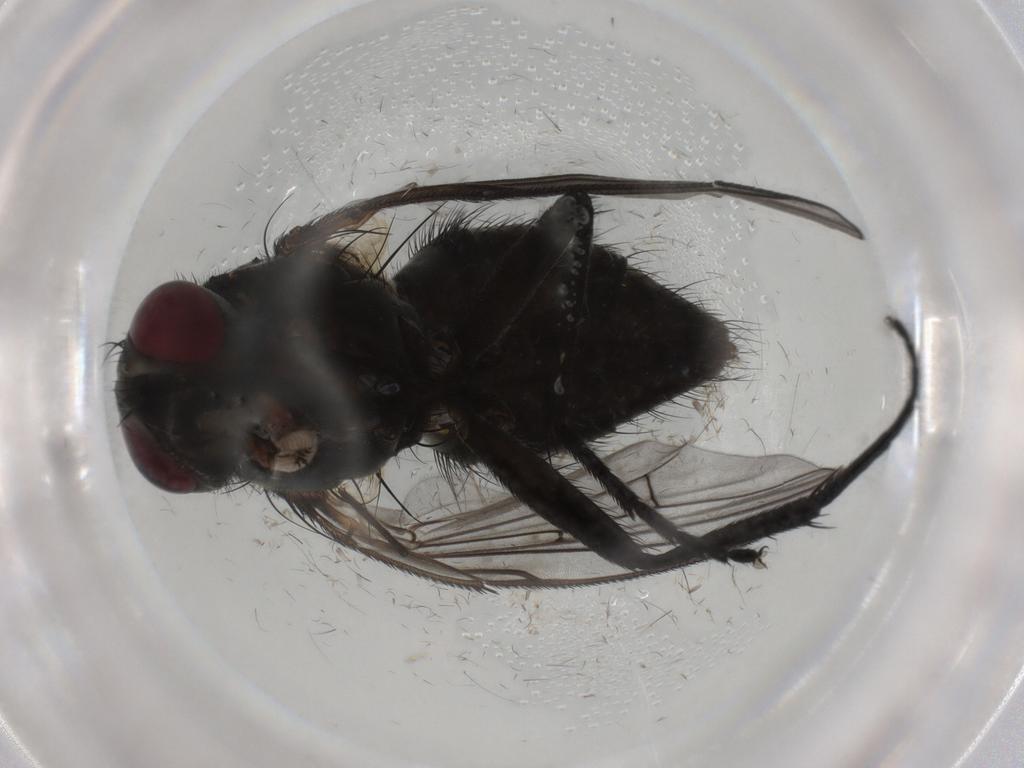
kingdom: Animalia
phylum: Arthropoda
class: Insecta
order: Diptera
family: Muscidae
